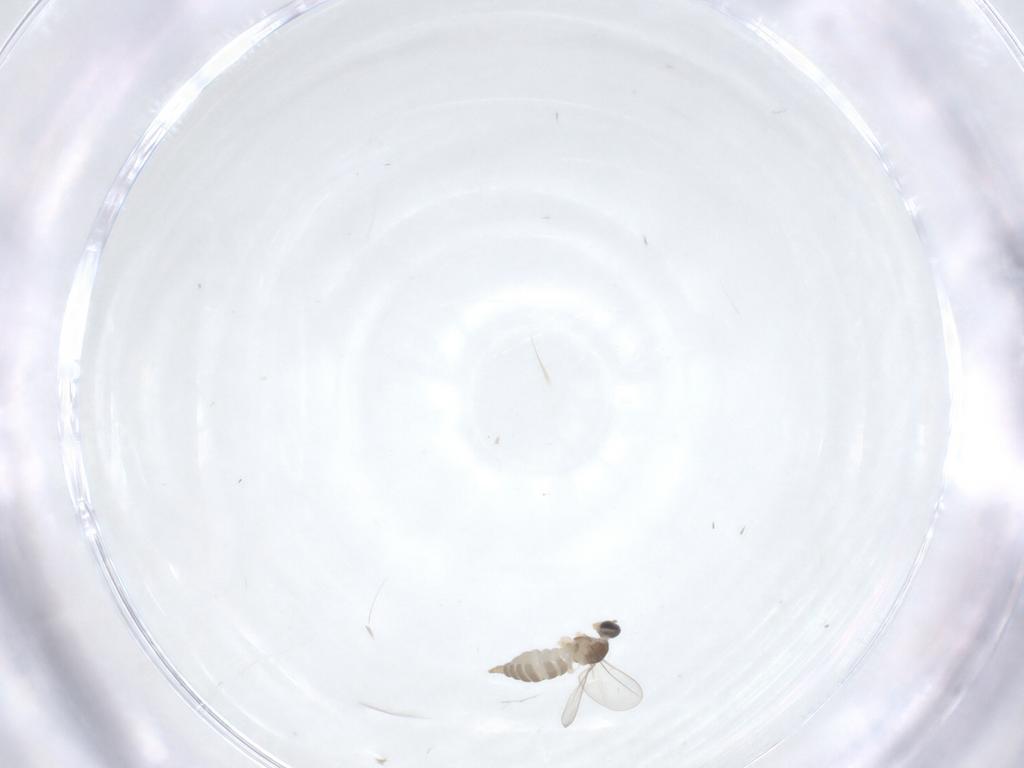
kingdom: Animalia
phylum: Arthropoda
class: Insecta
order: Diptera
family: Cecidomyiidae
